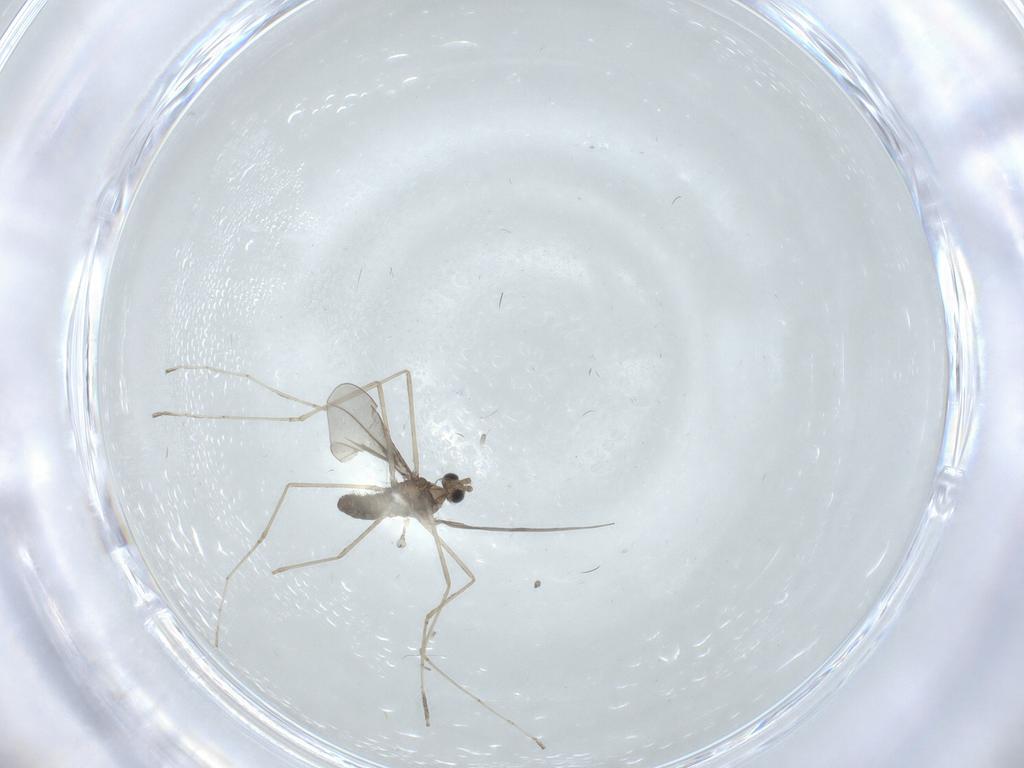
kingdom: Animalia
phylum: Arthropoda
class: Insecta
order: Diptera
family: Cecidomyiidae
